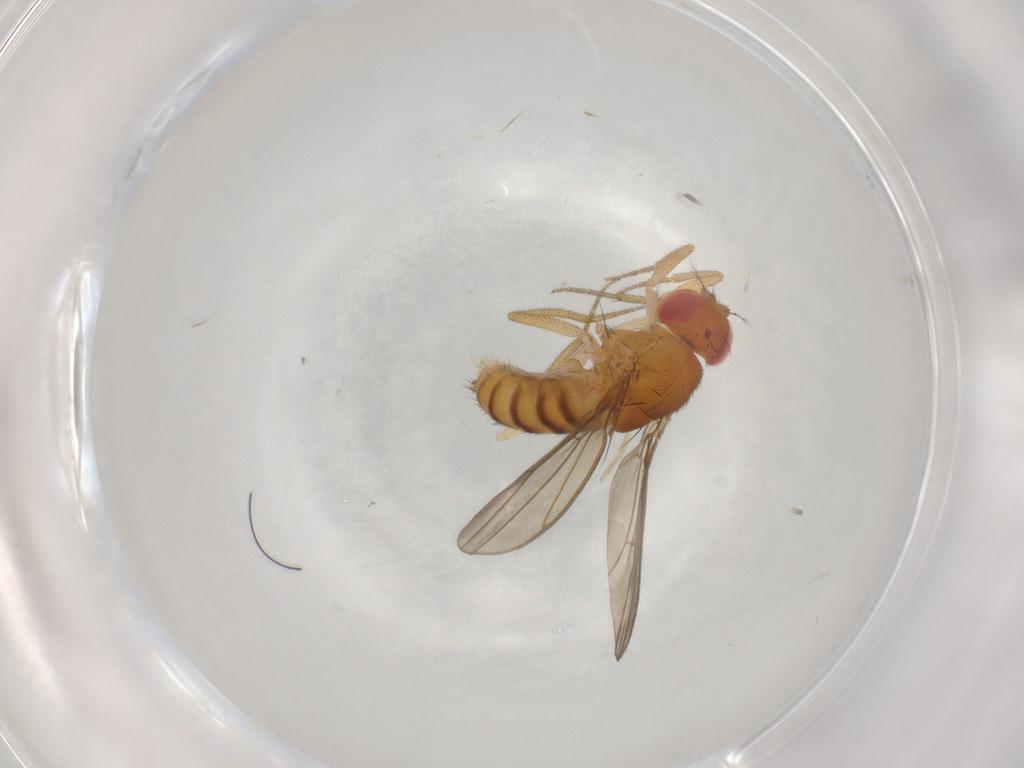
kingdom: Animalia
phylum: Arthropoda
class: Insecta
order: Diptera
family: Drosophilidae
